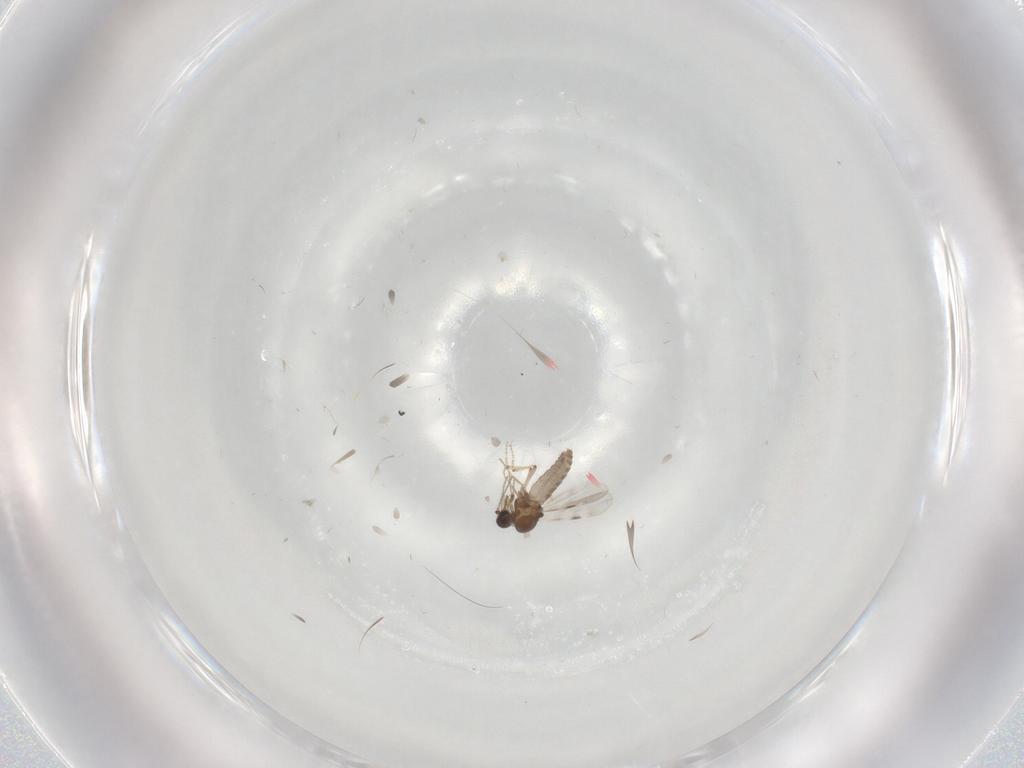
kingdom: Animalia
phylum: Arthropoda
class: Insecta
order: Diptera
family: Cecidomyiidae
